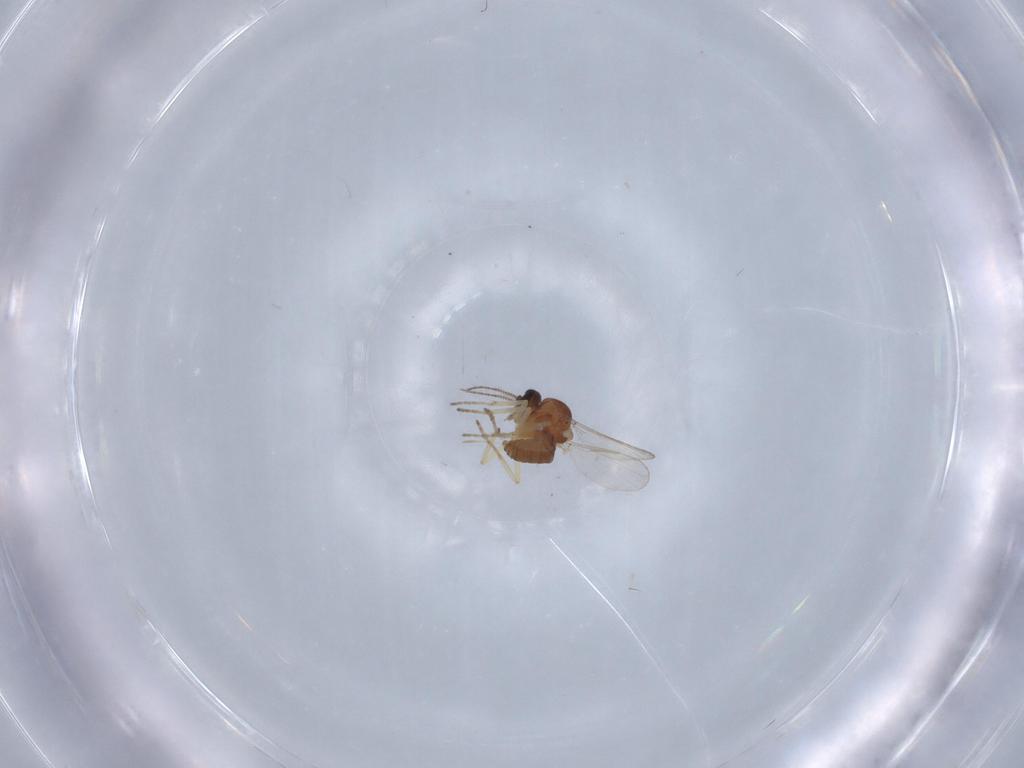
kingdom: Animalia
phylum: Arthropoda
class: Insecta
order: Diptera
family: Ceratopogonidae
